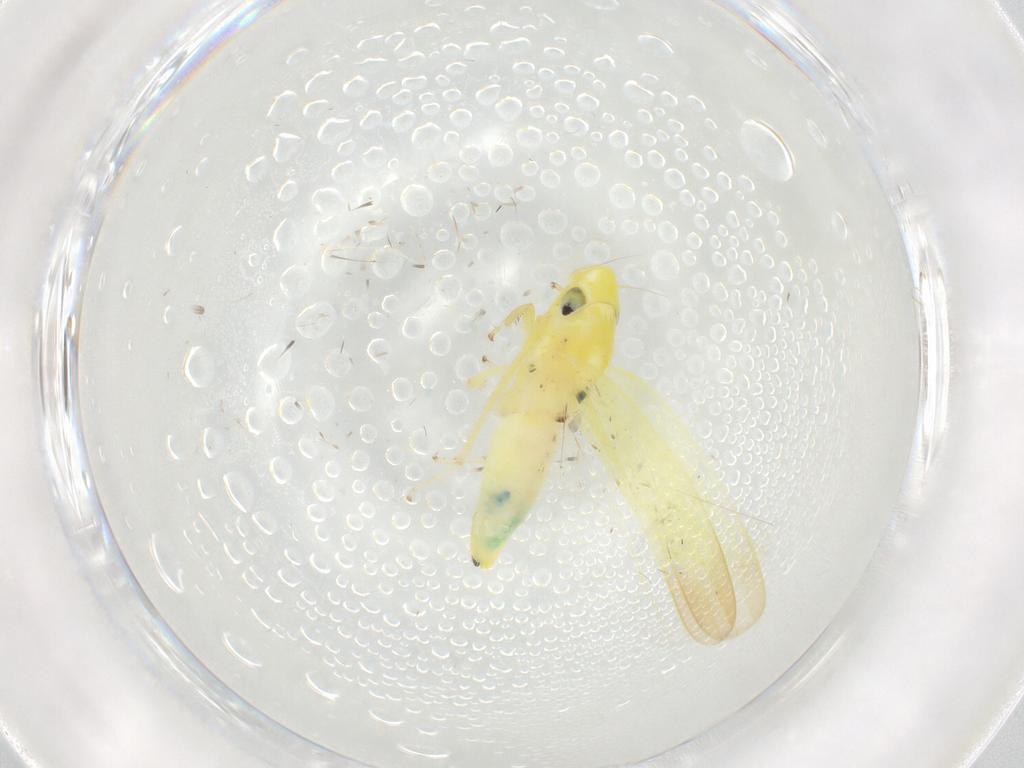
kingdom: Animalia
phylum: Arthropoda
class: Insecta
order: Hemiptera
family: Cicadellidae
